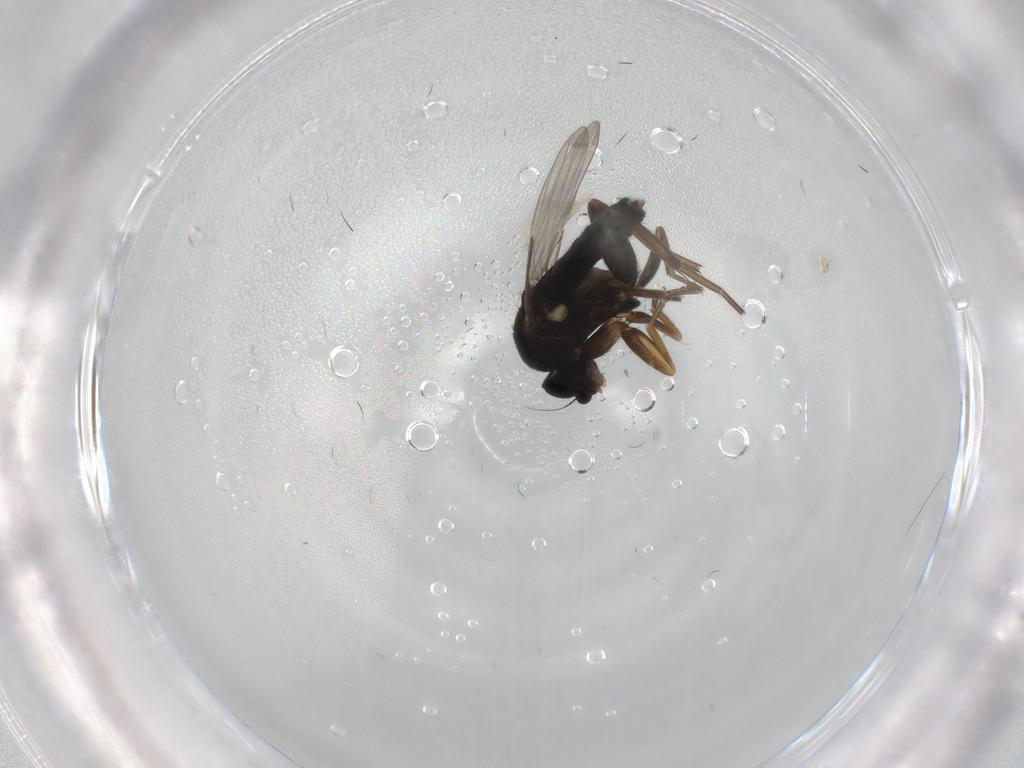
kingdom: Animalia
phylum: Arthropoda
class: Insecta
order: Diptera
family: Phoridae
